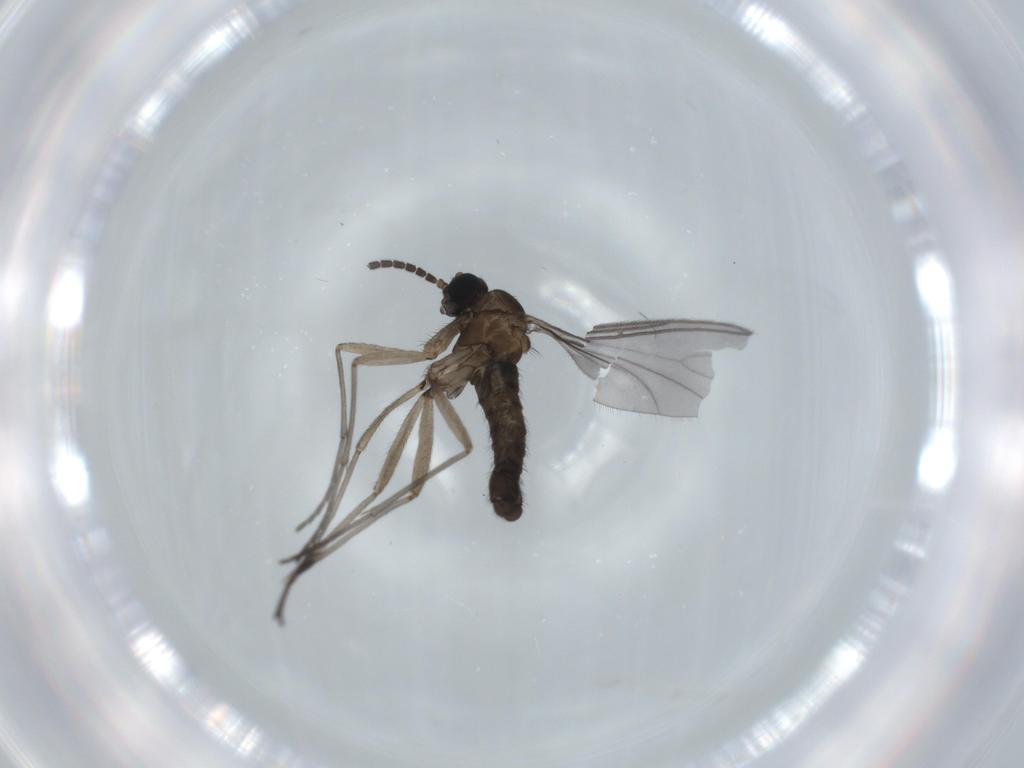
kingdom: Animalia
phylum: Arthropoda
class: Insecta
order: Diptera
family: Sciaridae
